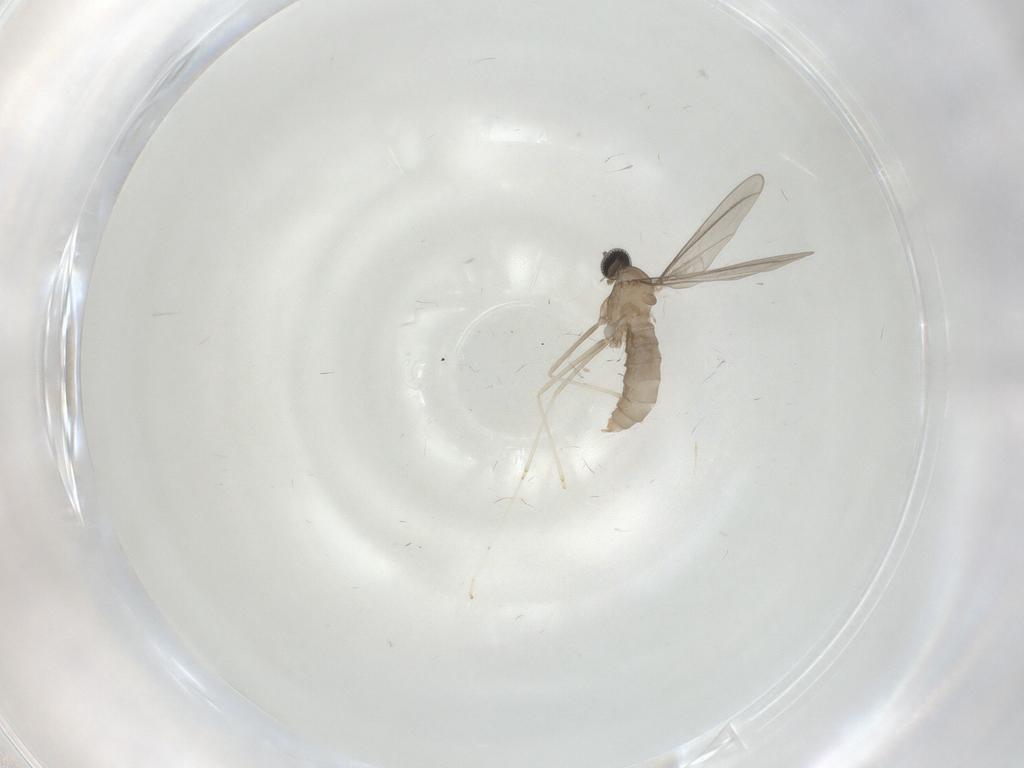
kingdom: Animalia
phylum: Arthropoda
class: Insecta
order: Diptera
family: Cecidomyiidae
